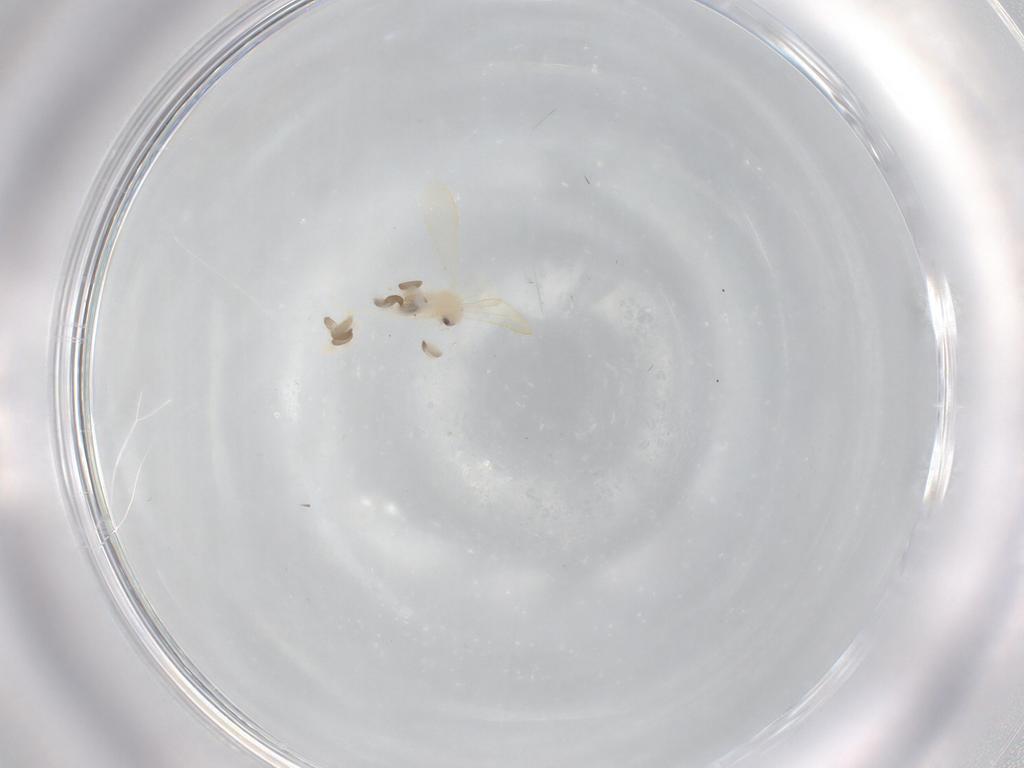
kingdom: Animalia
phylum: Arthropoda
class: Insecta
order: Hemiptera
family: Aleyrodidae
